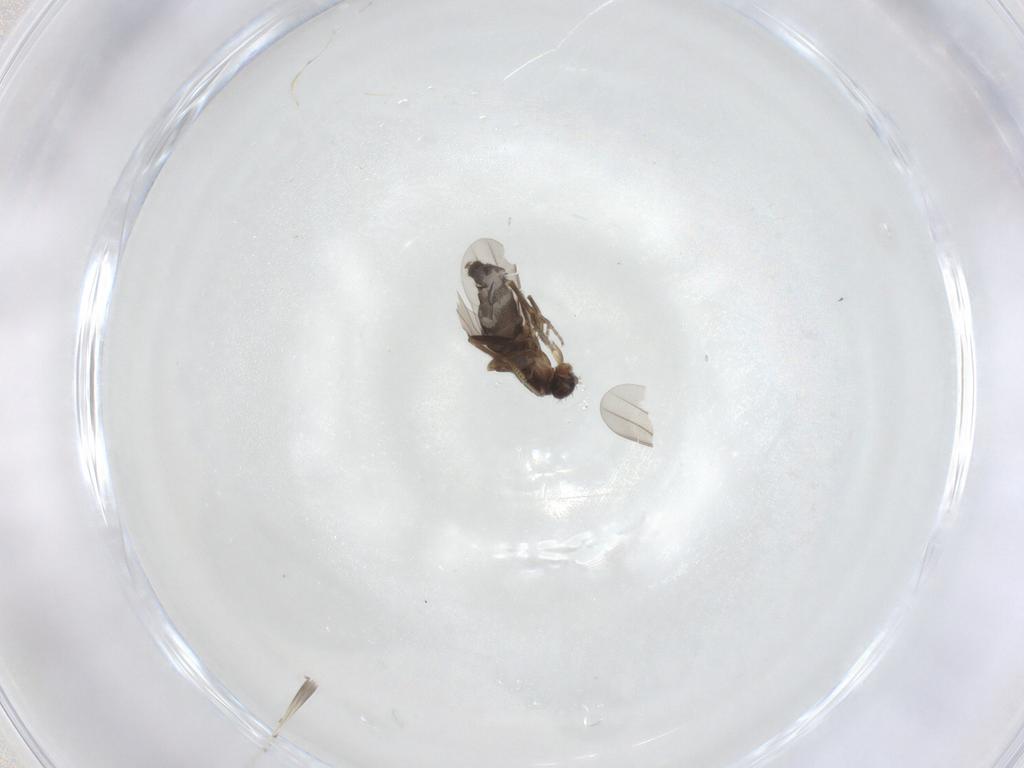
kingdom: Animalia
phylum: Arthropoda
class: Insecta
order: Diptera
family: Phoridae
